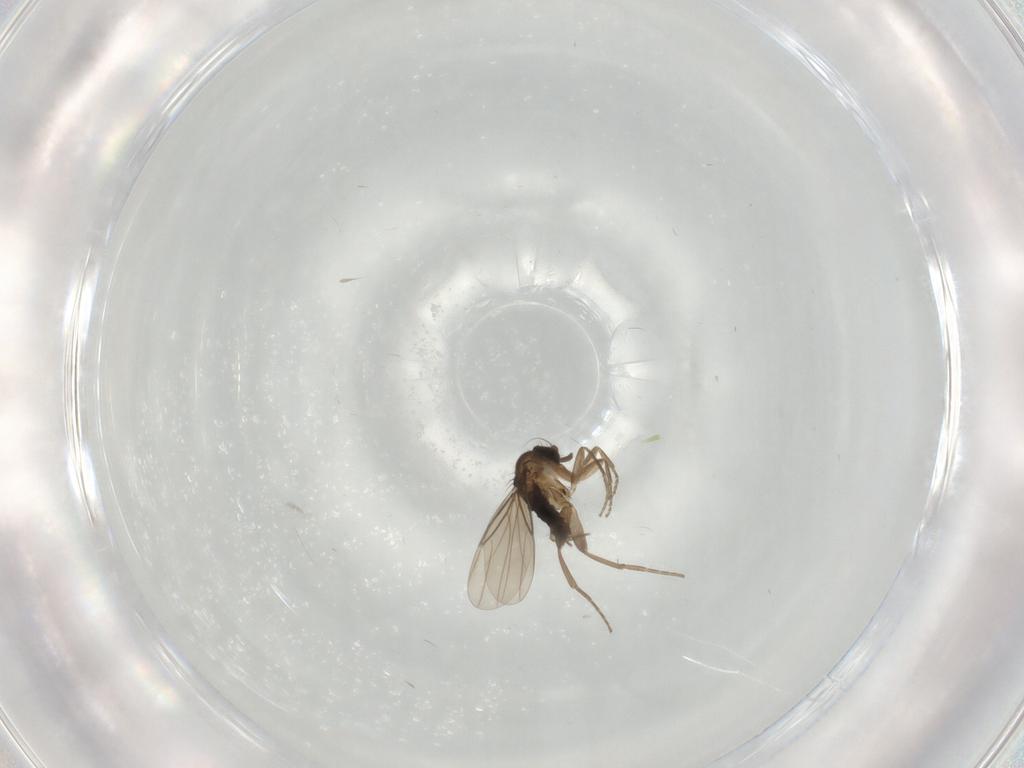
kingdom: Animalia
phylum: Arthropoda
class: Insecta
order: Diptera
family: Phoridae
